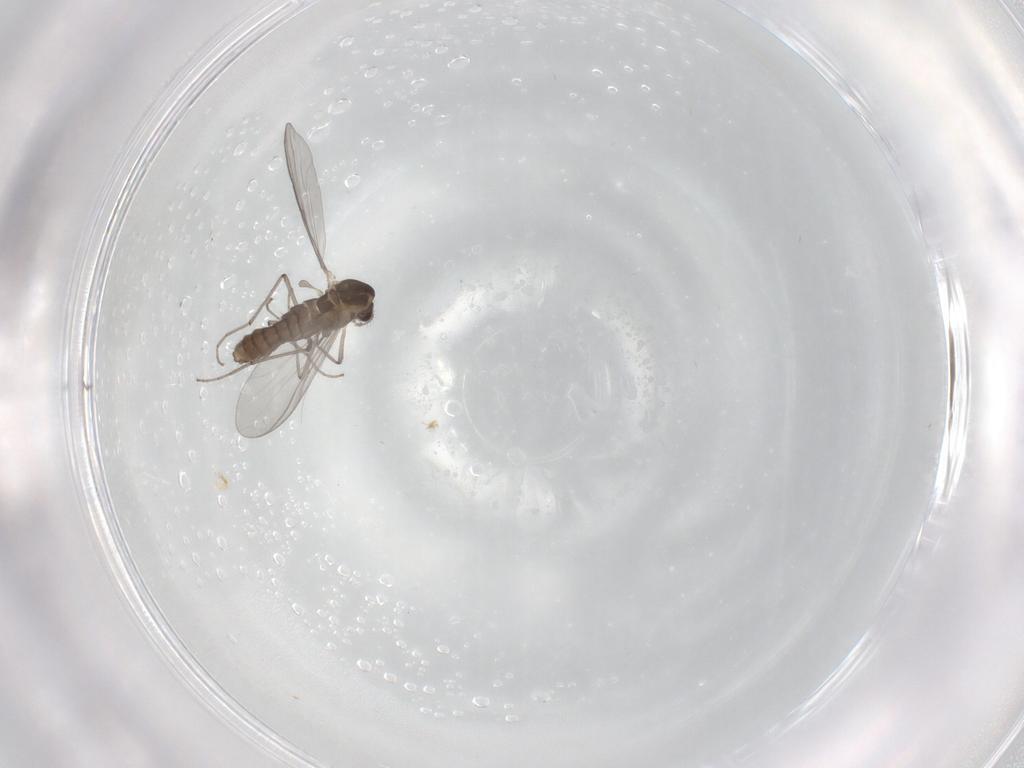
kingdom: Animalia
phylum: Arthropoda
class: Insecta
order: Diptera
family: Chironomidae
